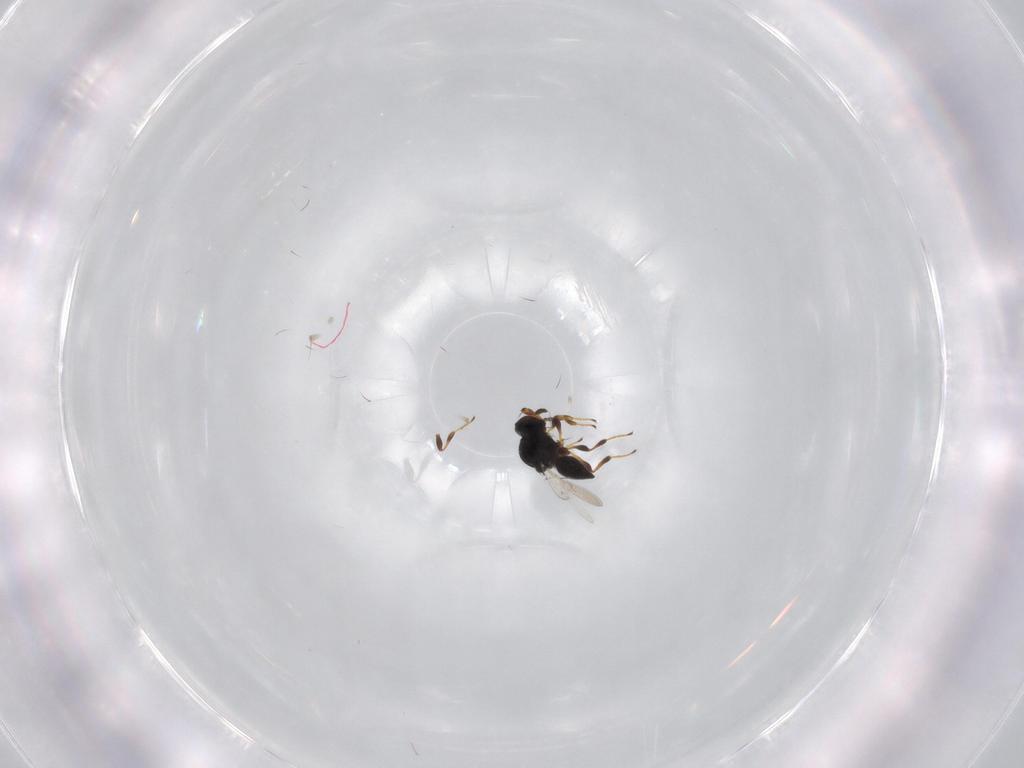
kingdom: Animalia
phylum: Arthropoda
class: Insecta
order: Hymenoptera
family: Platygastridae
